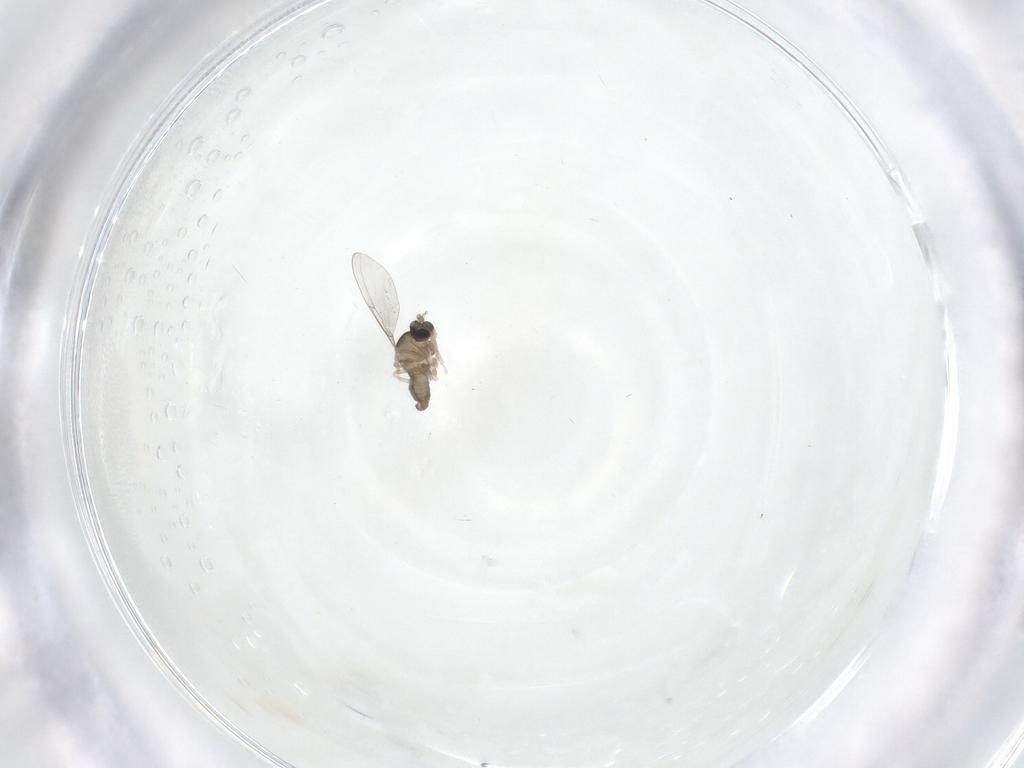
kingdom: Animalia
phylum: Arthropoda
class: Insecta
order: Diptera
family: Cecidomyiidae
